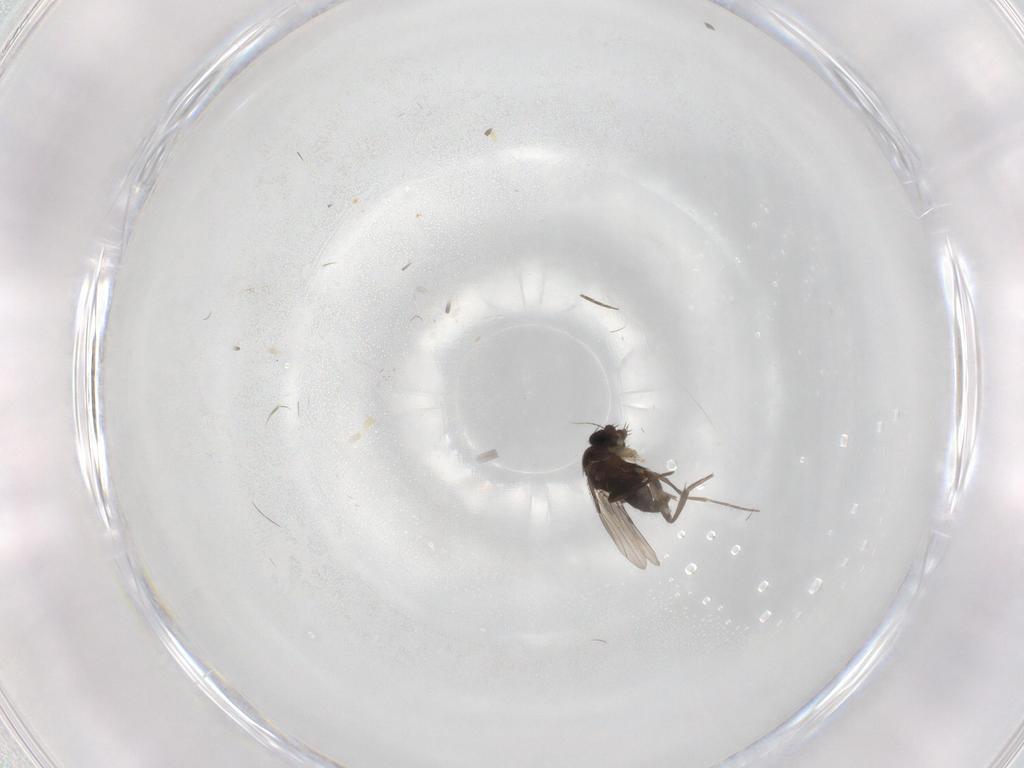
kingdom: Animalia
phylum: Arthropoda
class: Insecta
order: Diptera
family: Phoridae
